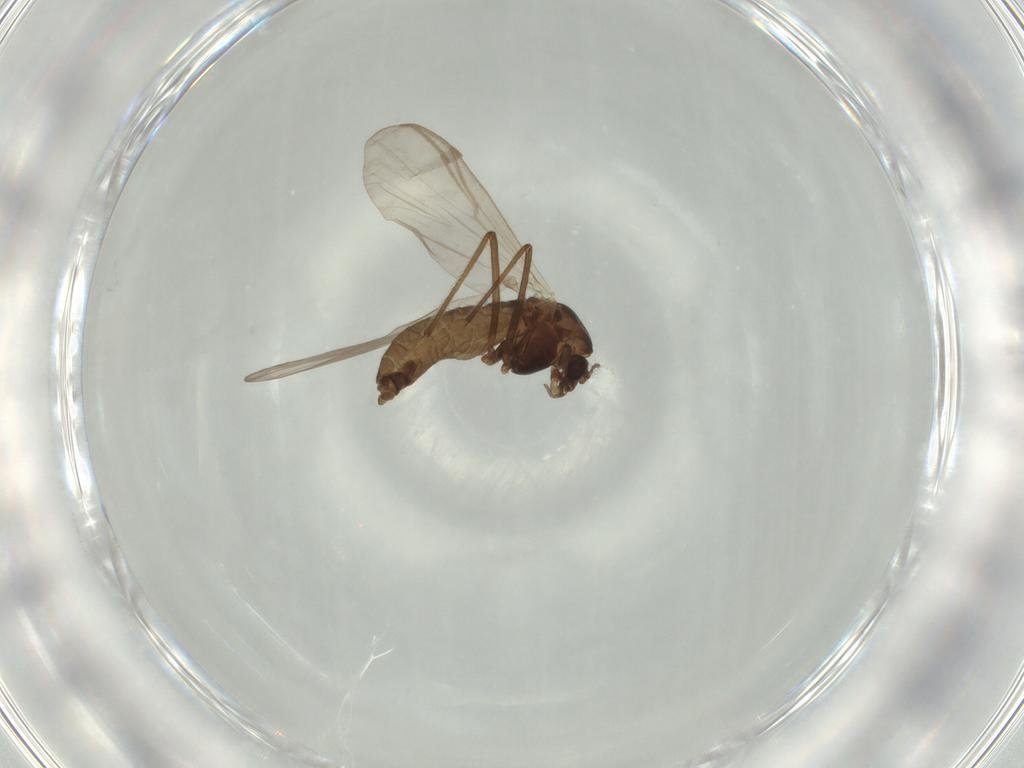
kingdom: Animalia
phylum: Arthropoda
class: Insecta
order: Diptera
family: Chironomidae
